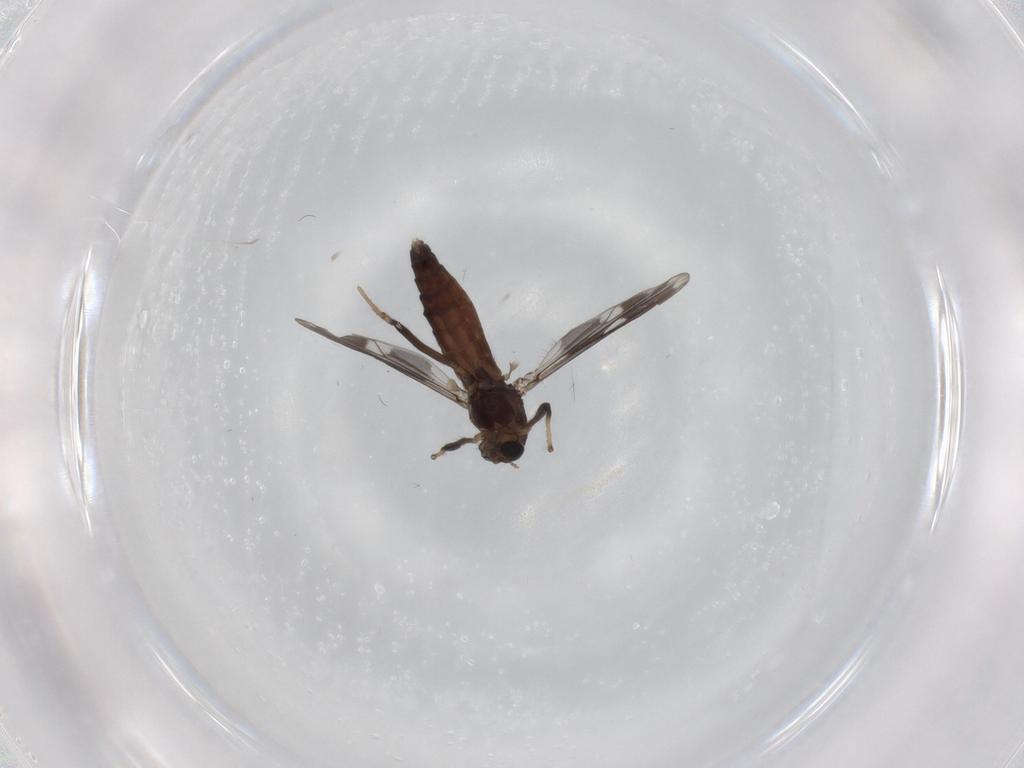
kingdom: Animalia
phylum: Arthropoda
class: Insecta
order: Diptera
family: Chironomidae
